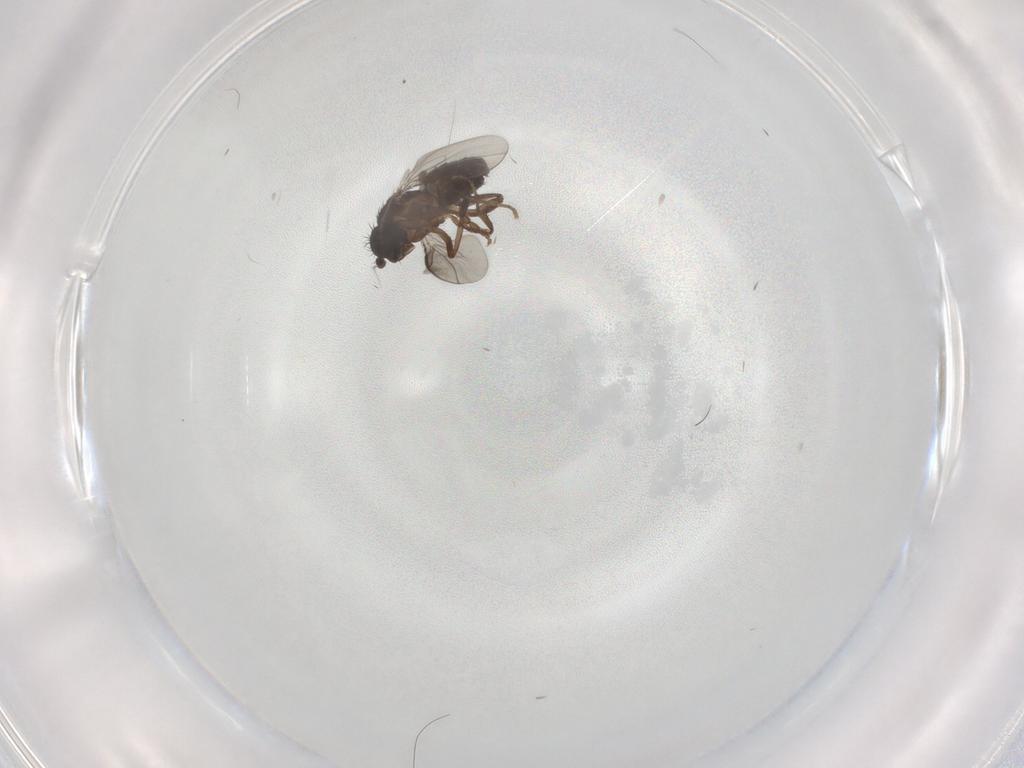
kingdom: Animalia
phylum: Arthropoda
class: Insecta
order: Diptera
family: Sphaeroceridae
